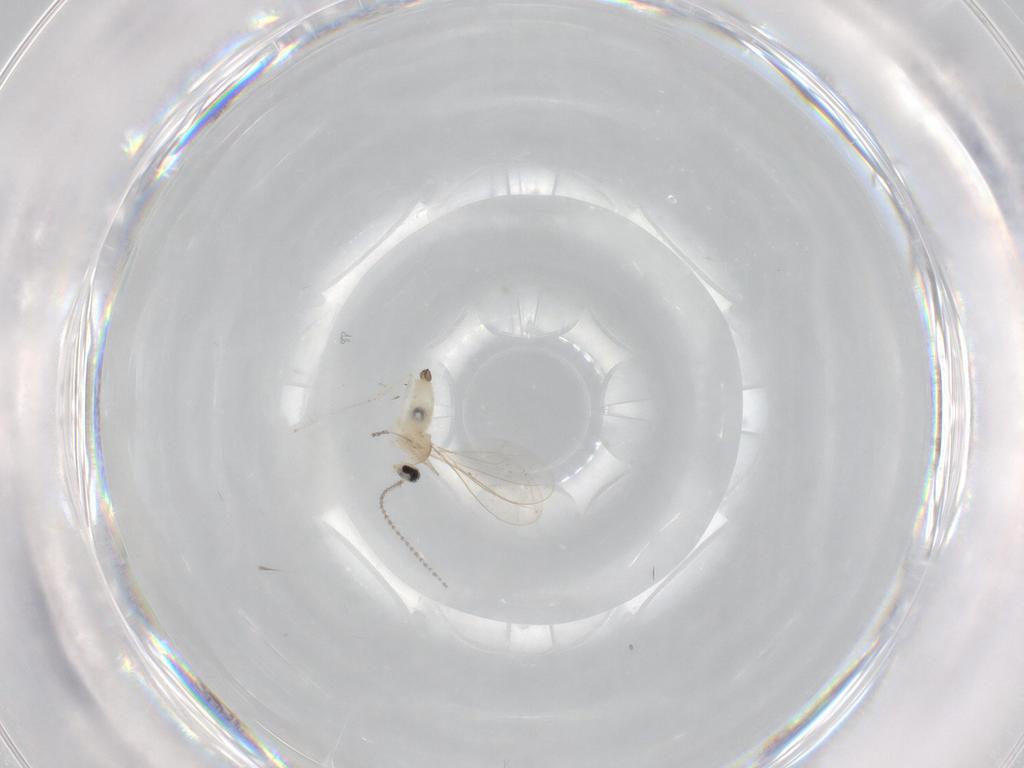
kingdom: Animalia
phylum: Arthropoda
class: Insecta
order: Diptera
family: Cecidomyiidae
